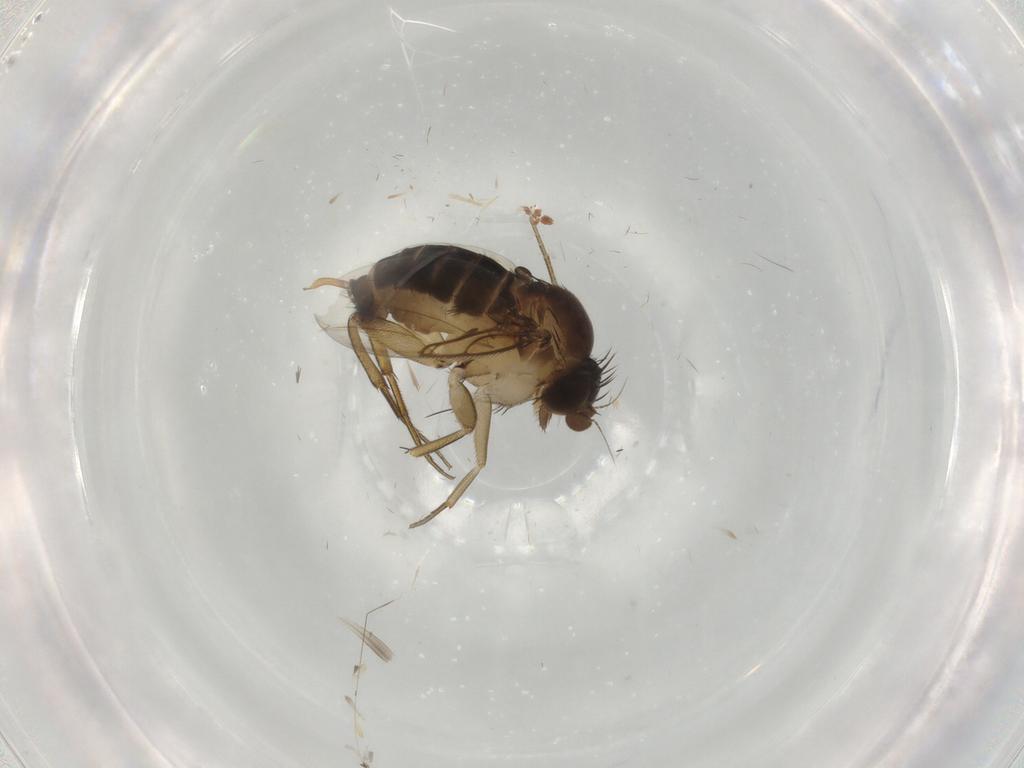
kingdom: Animalia
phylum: Arthropoda
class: Insecta
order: Diptera
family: Phoridae
